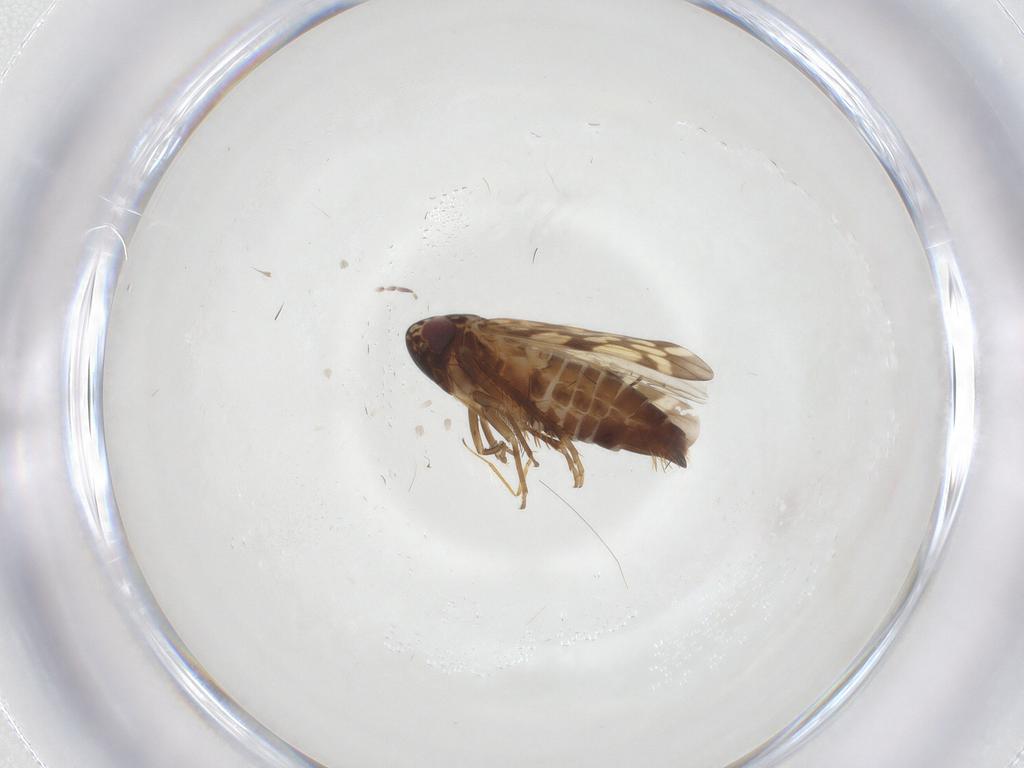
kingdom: Animalia
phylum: Arthropoda
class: Insecta
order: Hemiptera
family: Cicadellidae
